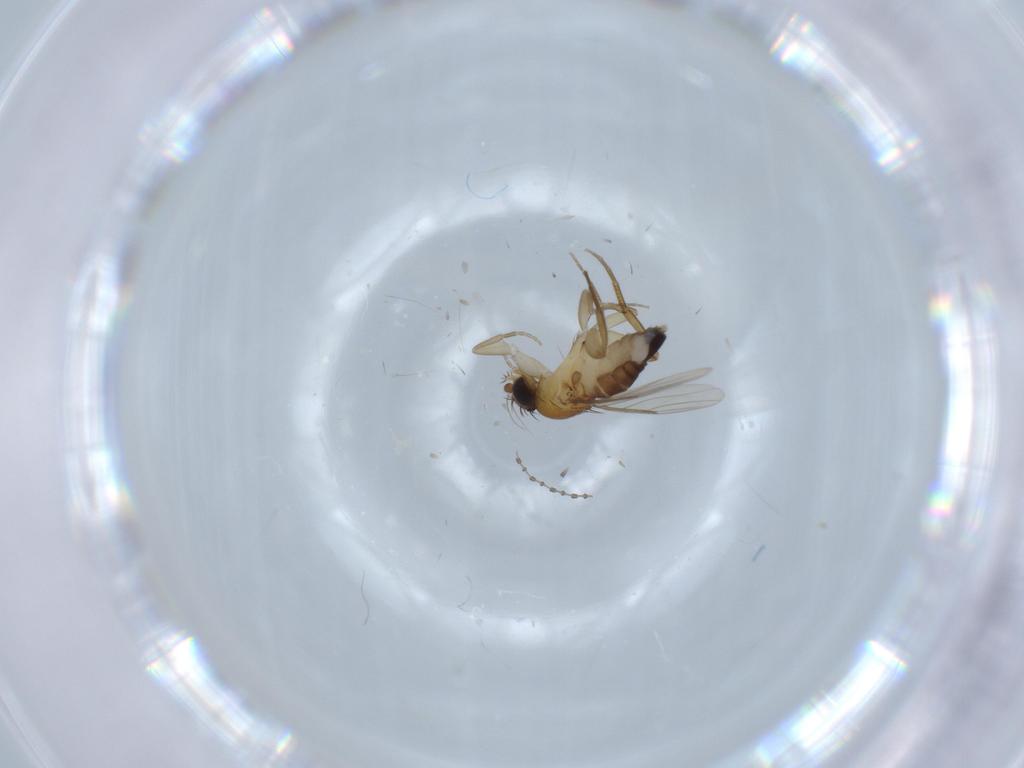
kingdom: Animalia
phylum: Arthropoda
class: Insecta
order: Diptera
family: Phoridae
